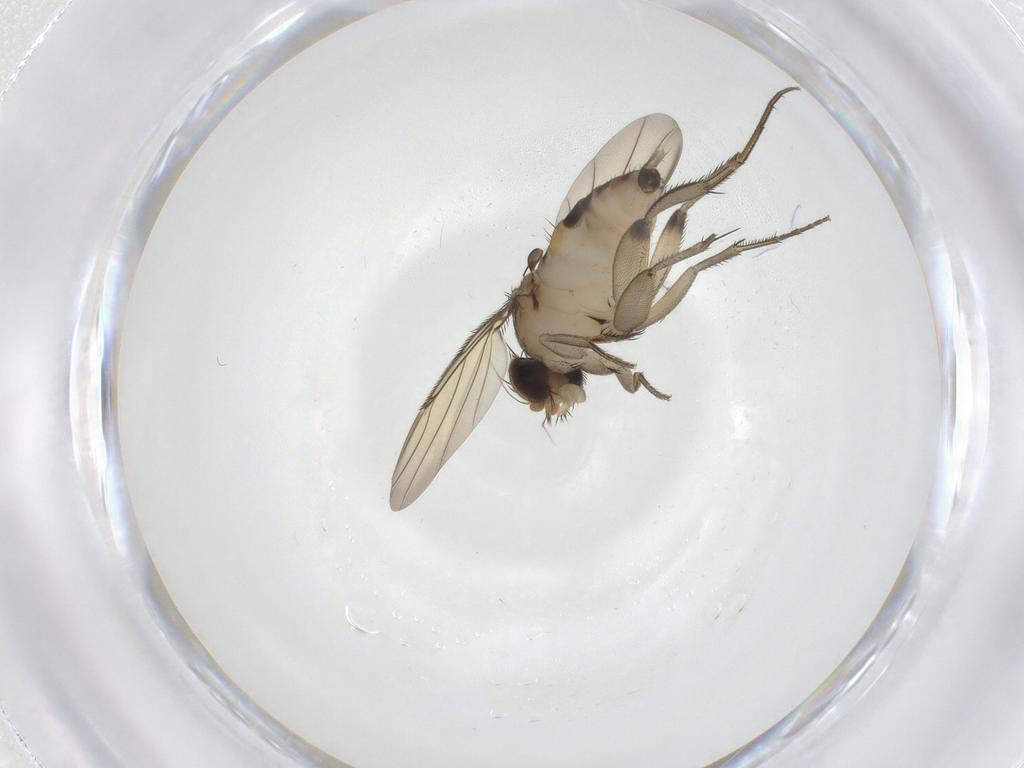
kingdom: Animalia
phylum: Arthropoda
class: Insecta
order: Diptera
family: Phoridae
